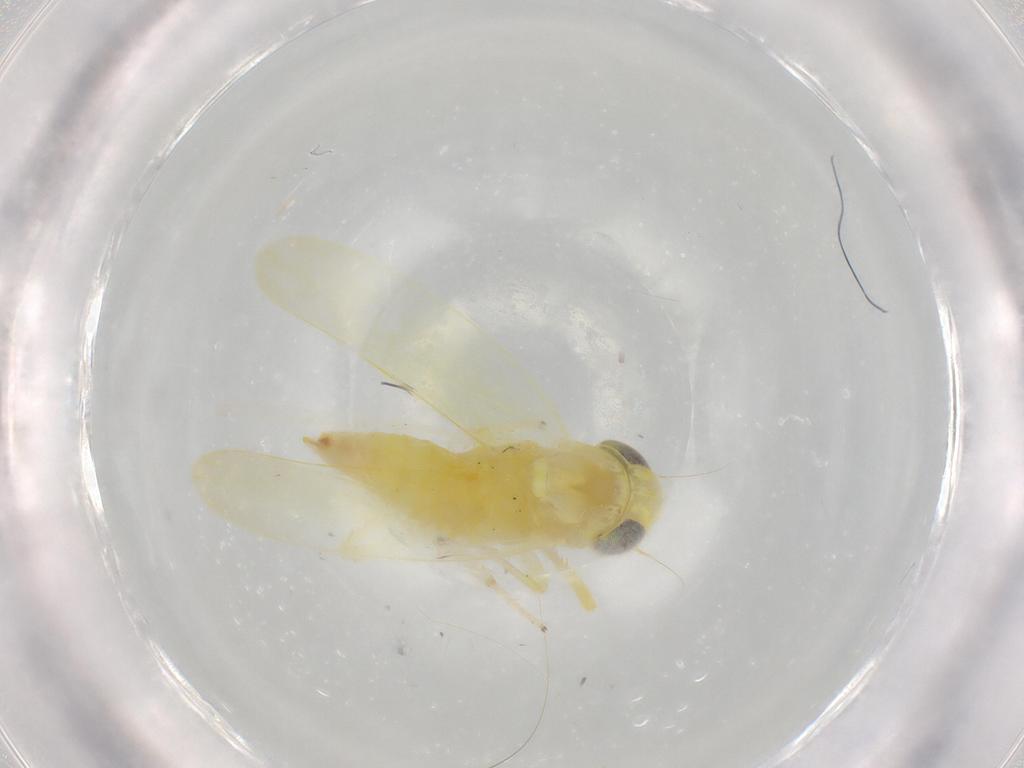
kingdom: Animalia
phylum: Arthropoda
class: Insecta
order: Hemiptera
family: Cicadellidae
